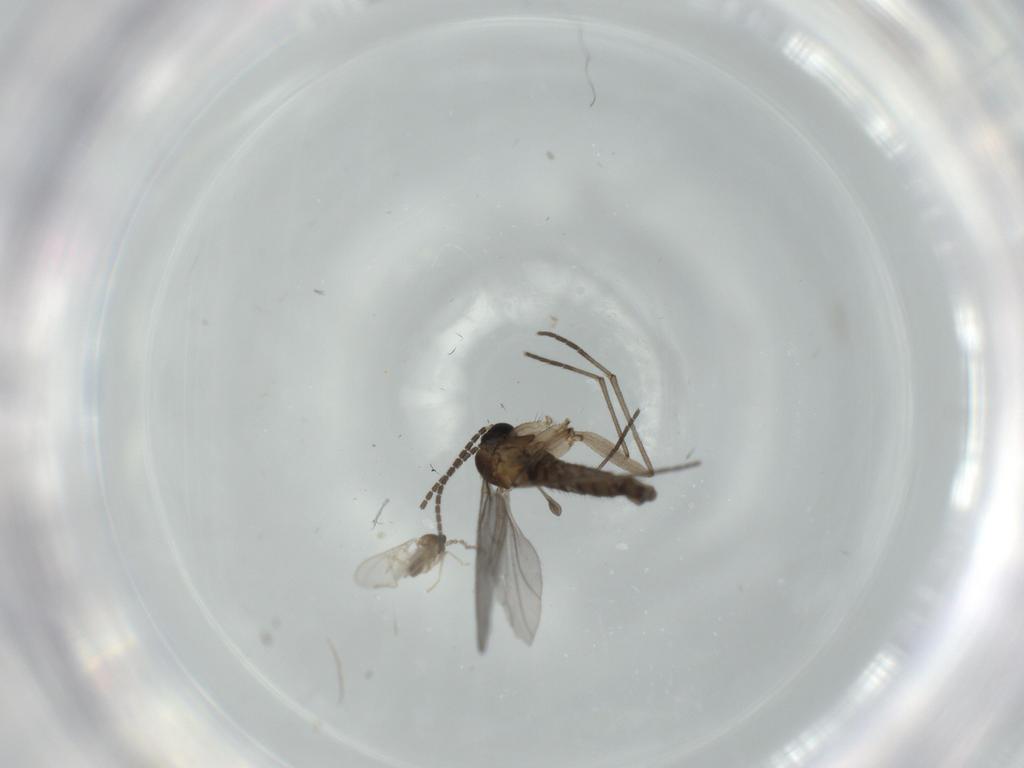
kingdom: Animalia
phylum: Arthropoda
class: Insecta
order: Diptera
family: Cecidomyiidae
